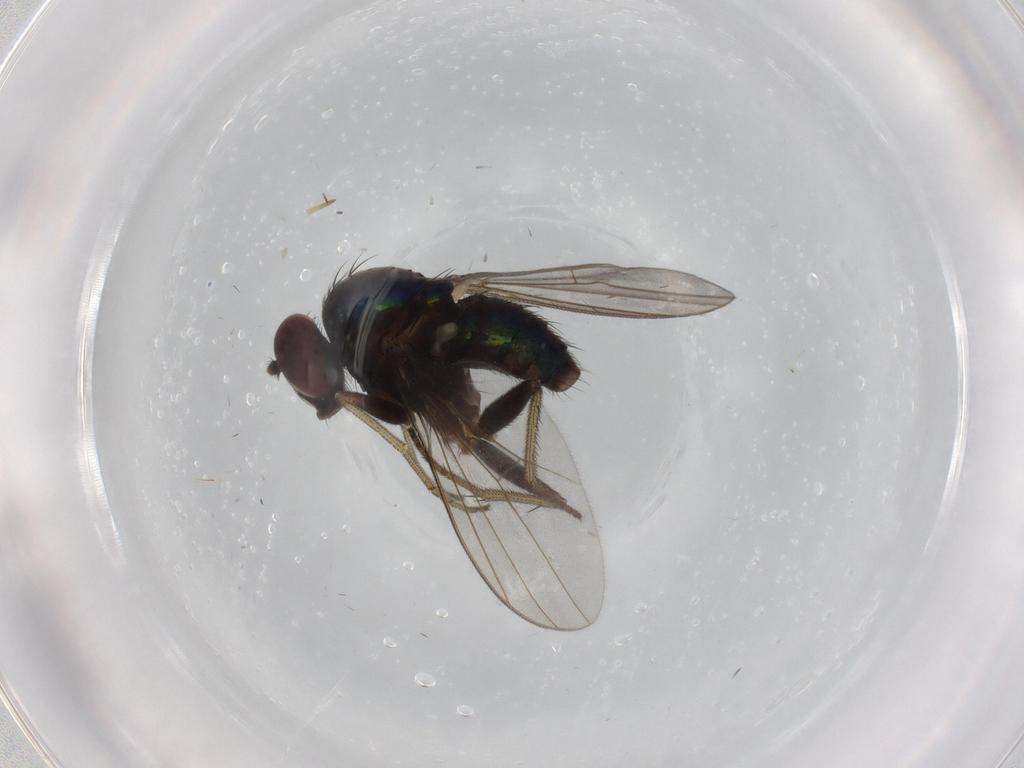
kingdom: Animalia
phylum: Arthropoda
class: Insecta
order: Diptera
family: Dolichopodidae
